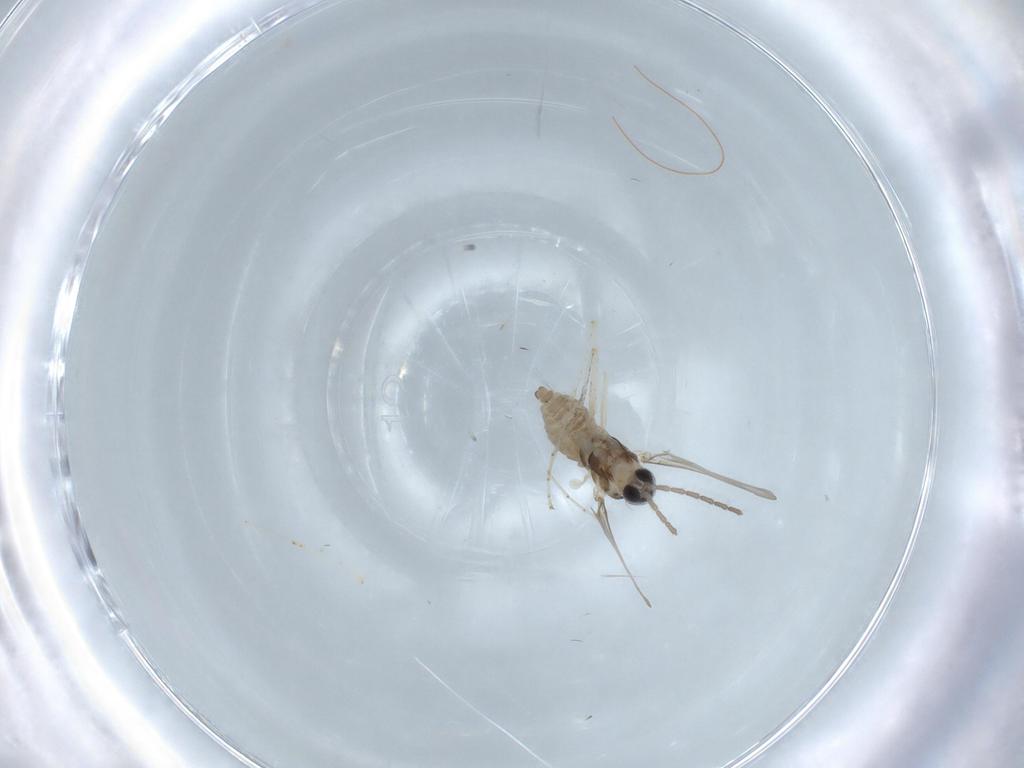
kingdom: Animalia
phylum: Arthropoda
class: Insecta
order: Diptera
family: Cecidomyiidae
